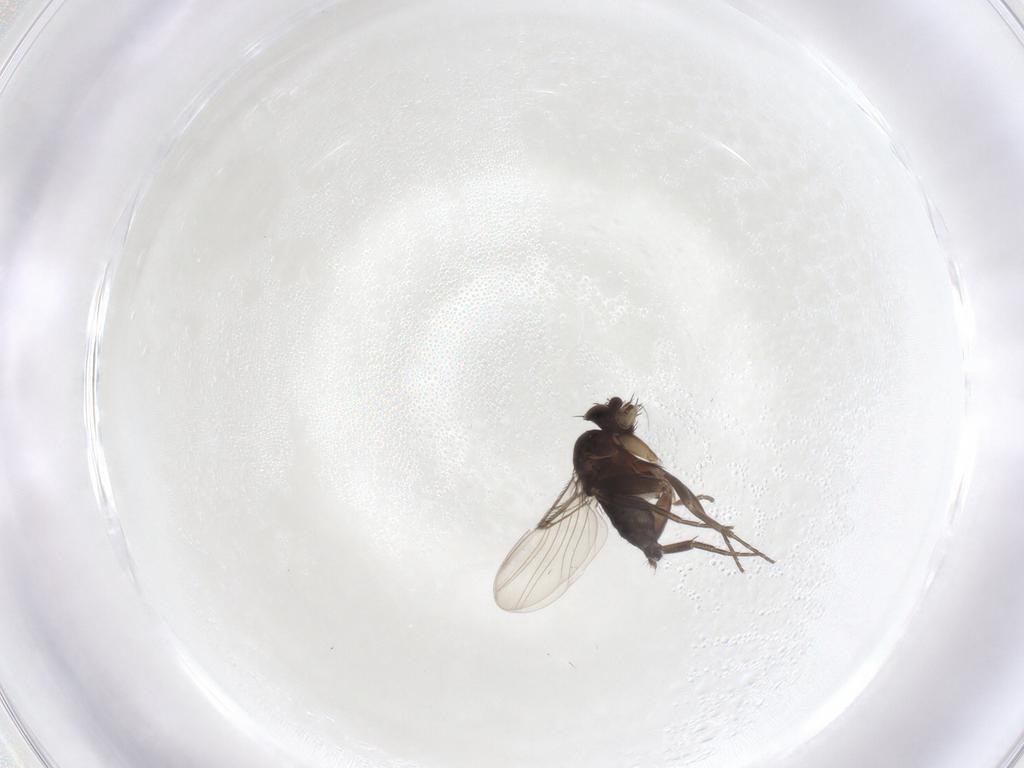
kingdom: Animalia
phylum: Arthropoda
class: Insecta
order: Diptera
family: Phoridae
